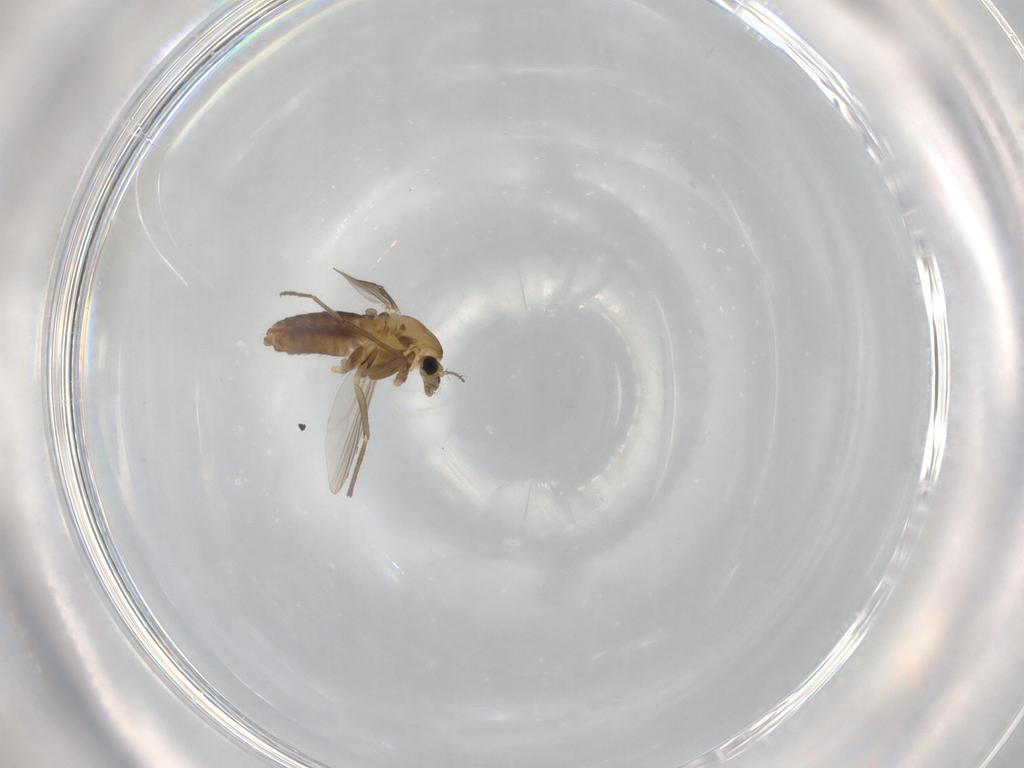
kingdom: Animalia
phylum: Arthropoda
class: Insecta
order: Diptera
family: Chironomidae
